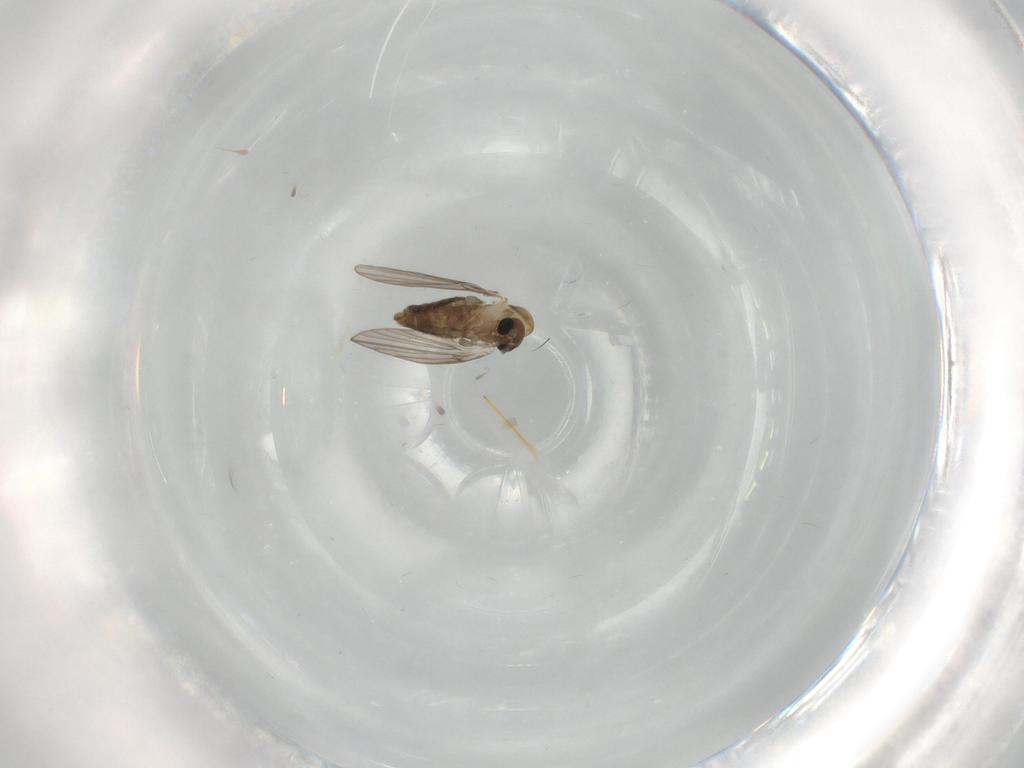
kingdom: Animalia
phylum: Arthropoda
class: Insecta
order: Diptera
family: Psychodidae
